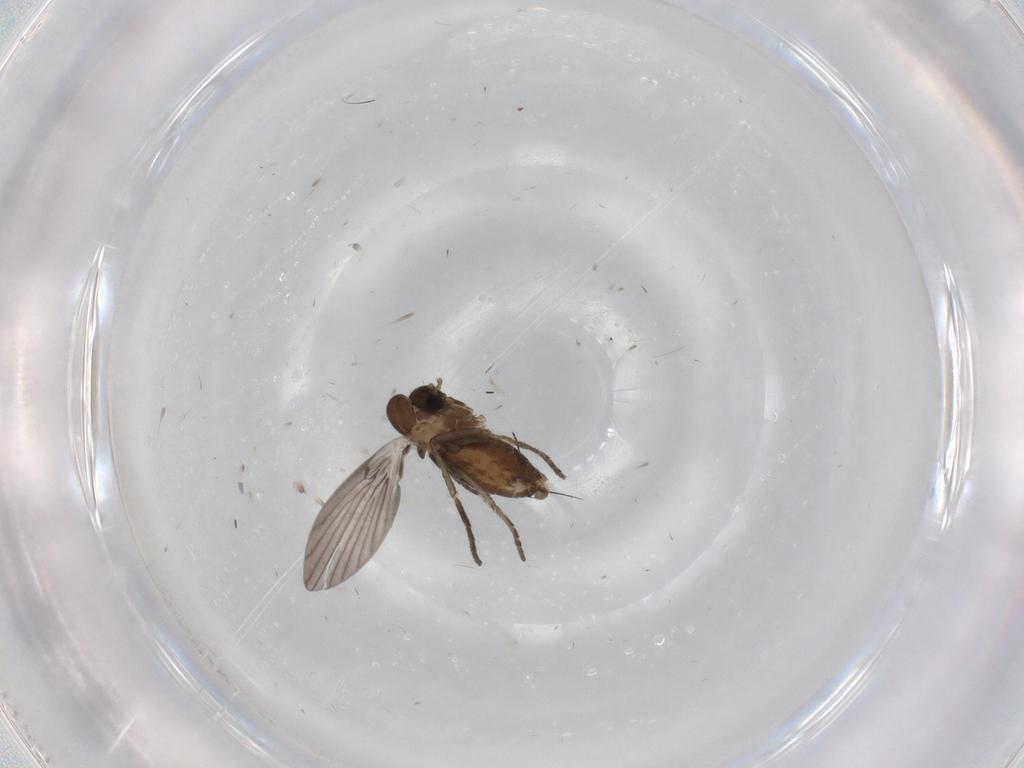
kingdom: Animalia
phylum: Arthropoda
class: Insecta
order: Diptera
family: Psychodidae
